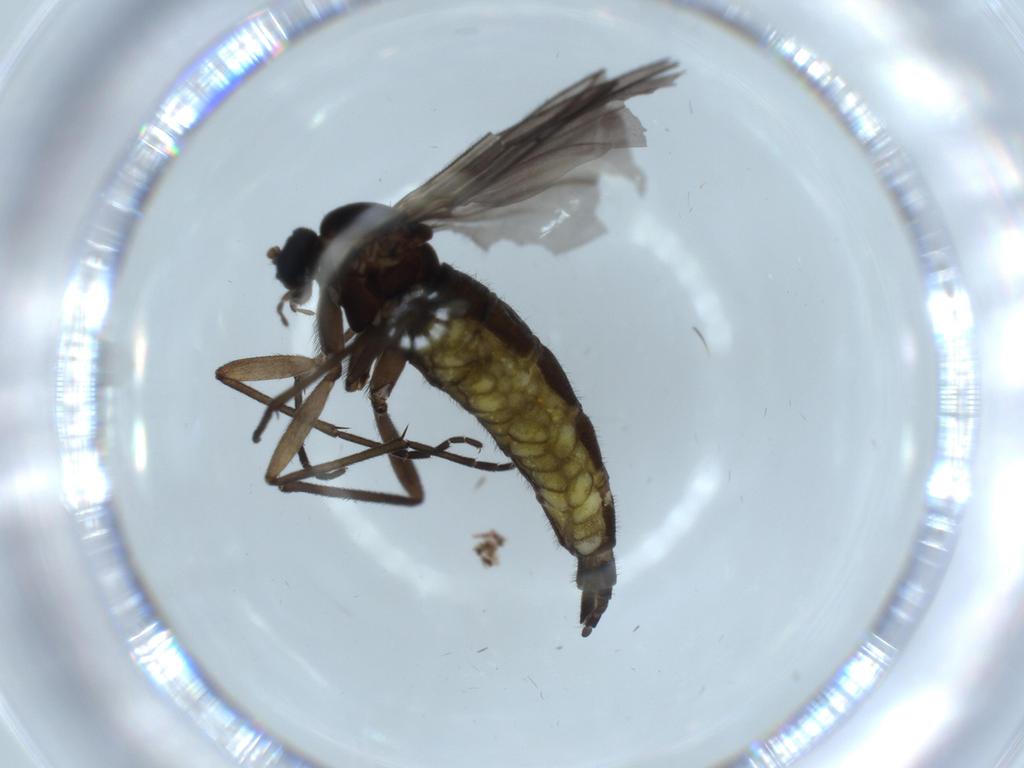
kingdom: Animalia
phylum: Arthropoda
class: Insecta
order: Diptera
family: Sciaridae
